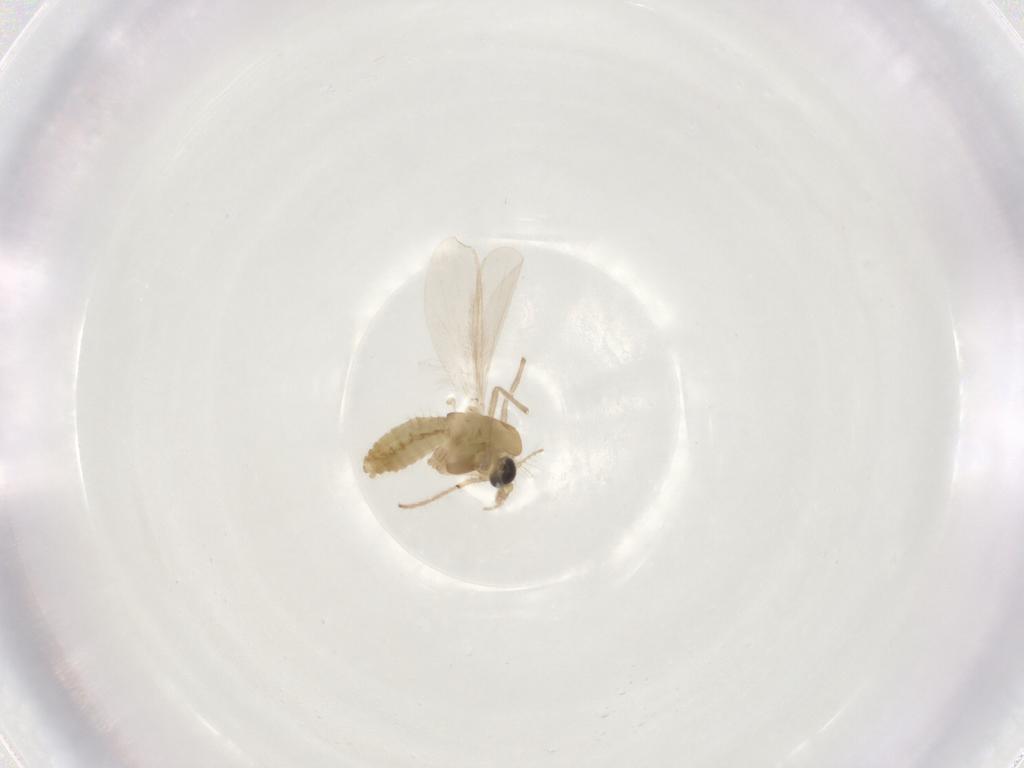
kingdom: Animalia
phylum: Arthropoda
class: Insecta
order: Diptera
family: Chironomidae
